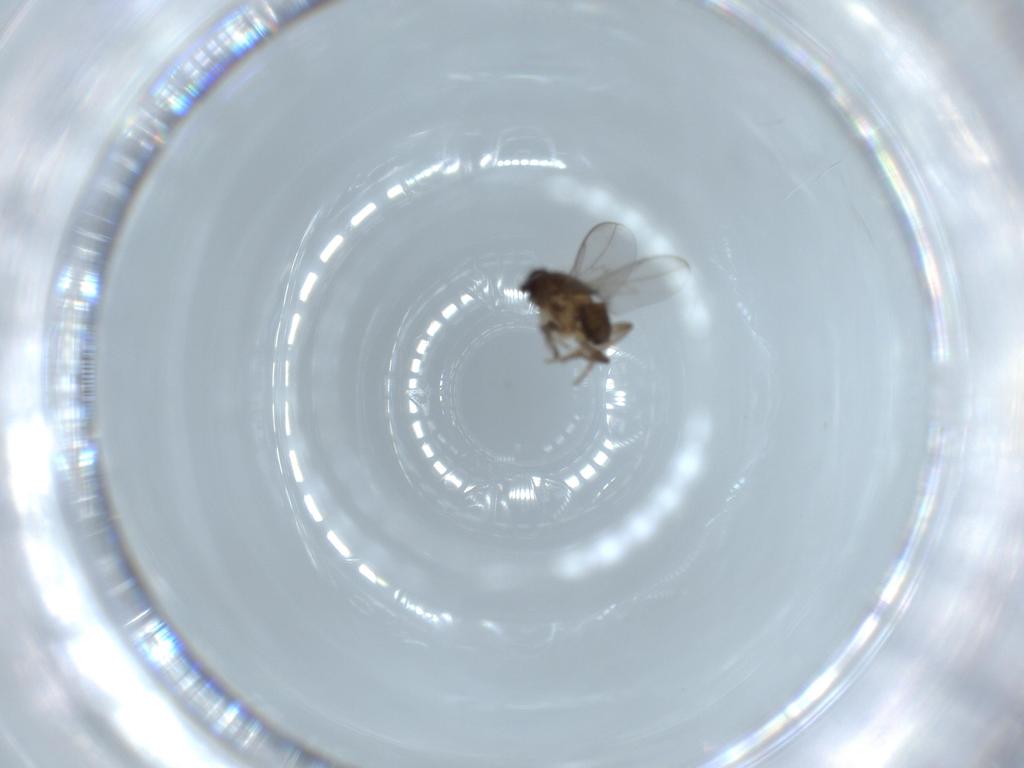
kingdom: Animalia
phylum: Arthropoda
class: Insecta
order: Diptera
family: Phoridae
